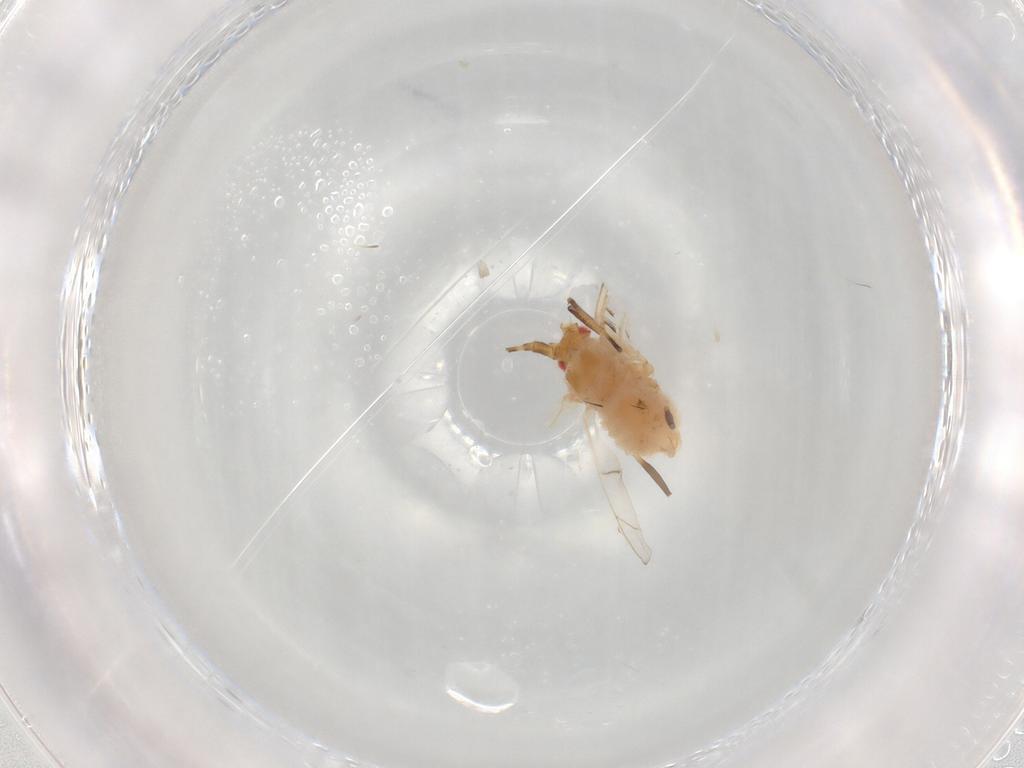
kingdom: Animalia
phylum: Arthropoda
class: Insecta
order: Hemiptera
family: Aphididae
